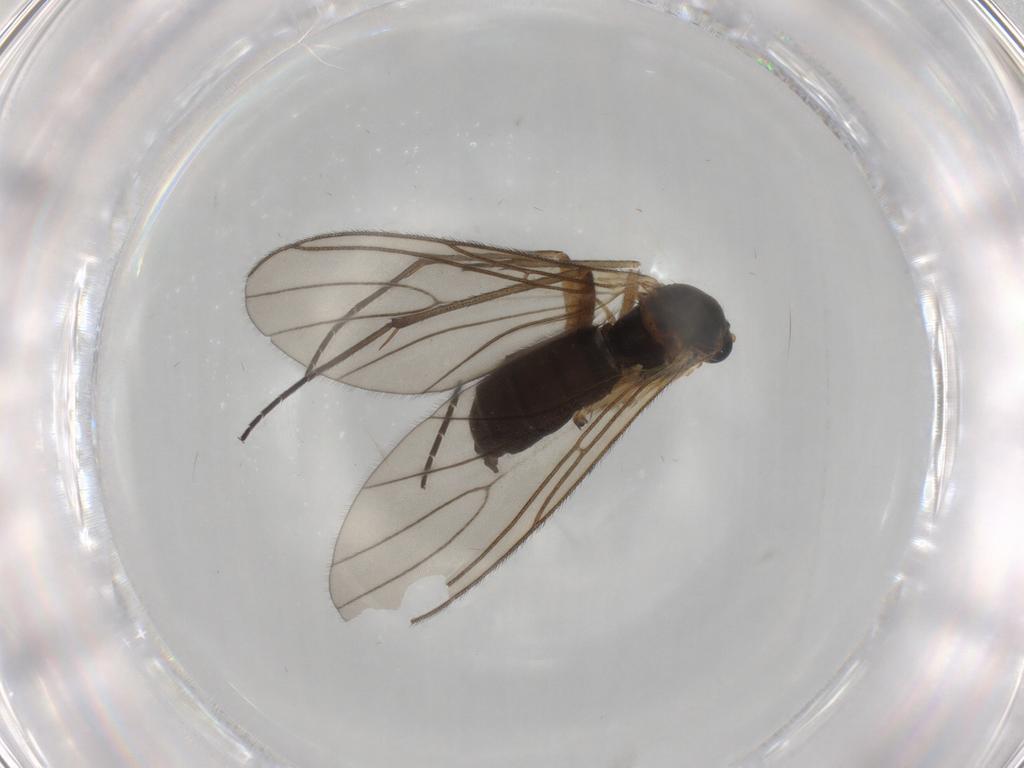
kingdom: Animalia
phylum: Arthropoda
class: Insecta
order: Diptera
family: Sciaridae
